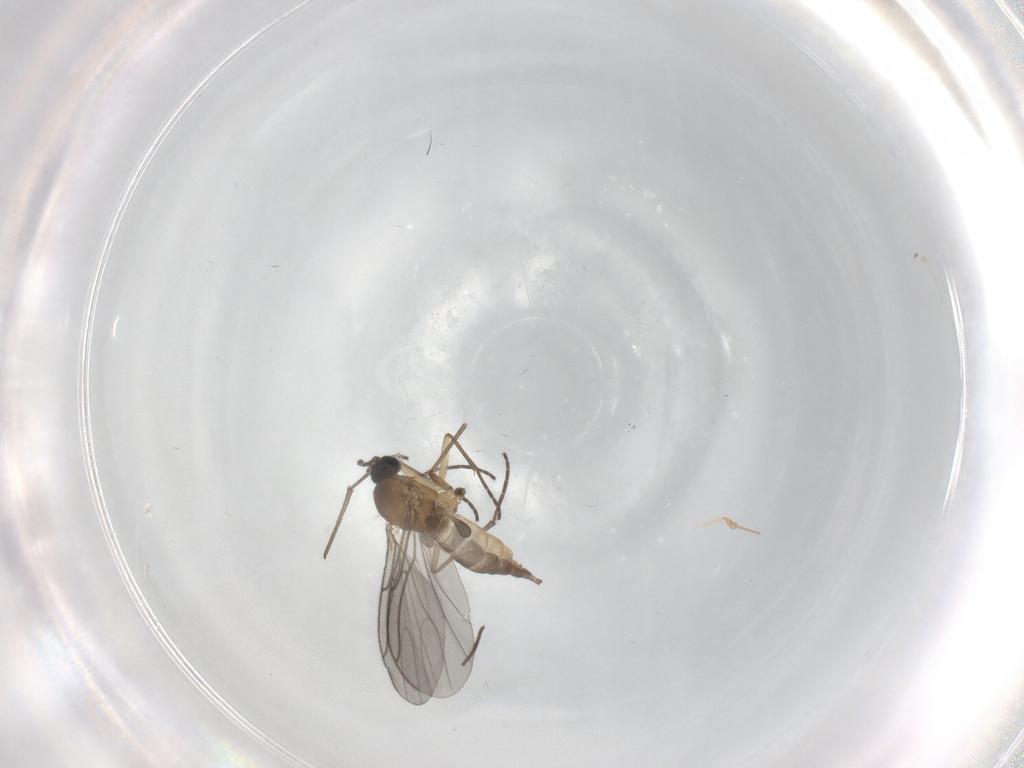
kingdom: Animalia
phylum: Arthropoda
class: Insecta
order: Diptera
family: Sciaridae
